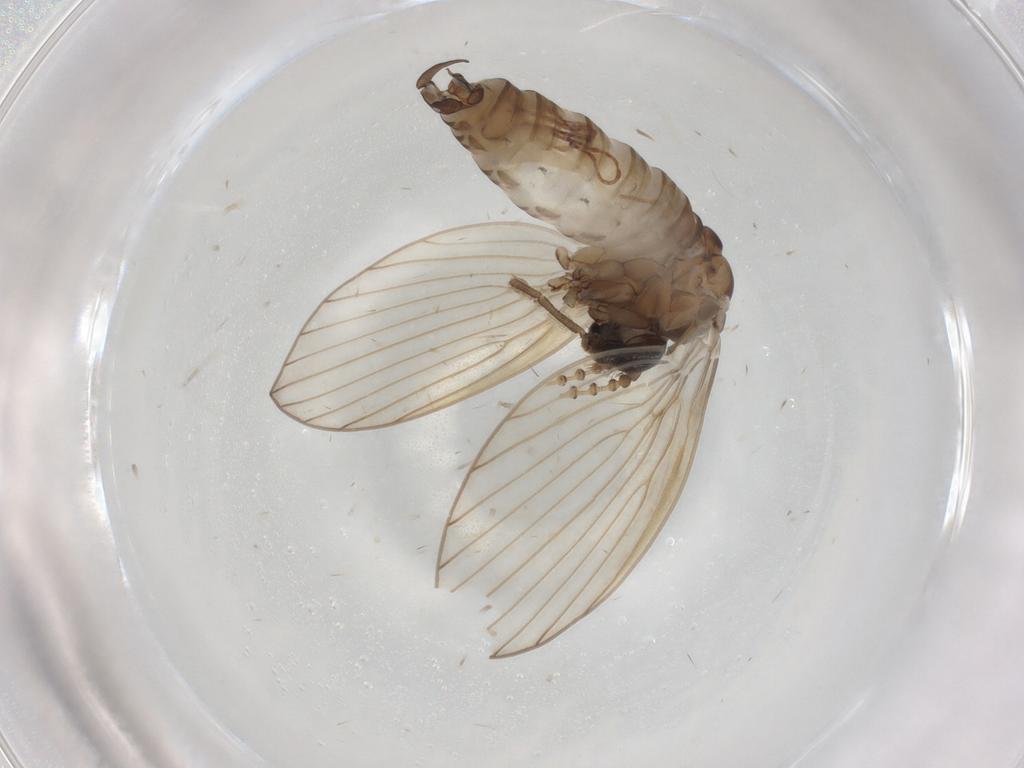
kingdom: Animalia
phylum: Arthropoda
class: Insecta
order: Diptera
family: Psychodidae
